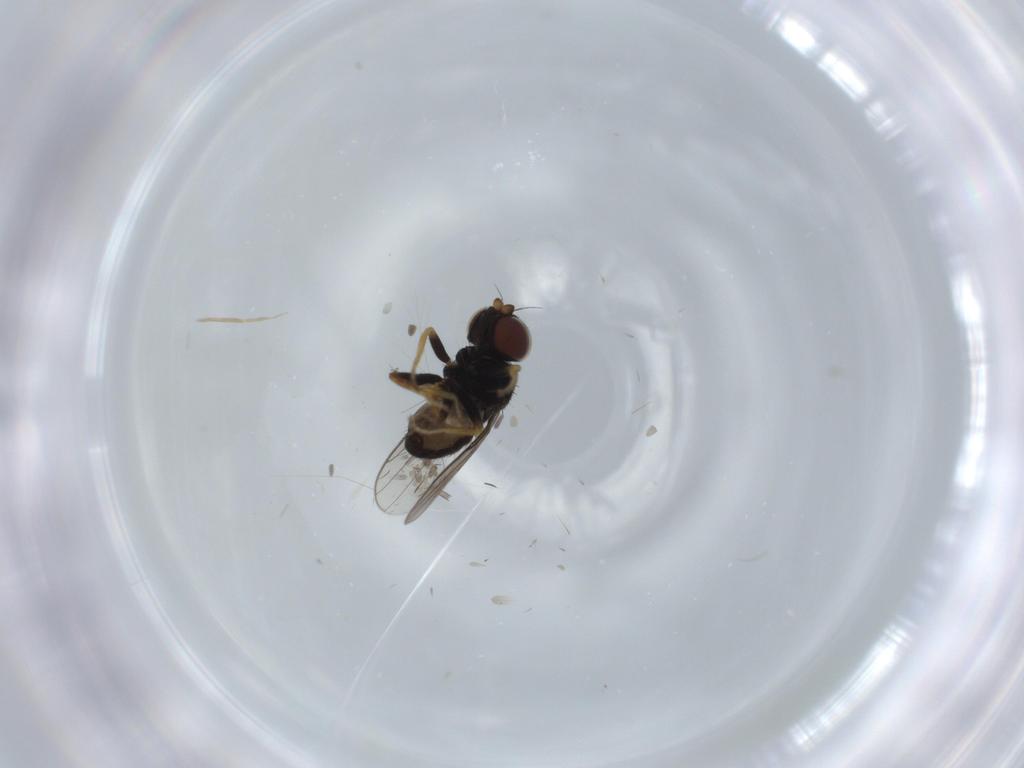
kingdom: Animalia
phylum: Arthropoda
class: Insecta
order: Diptera
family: Chloropidae
